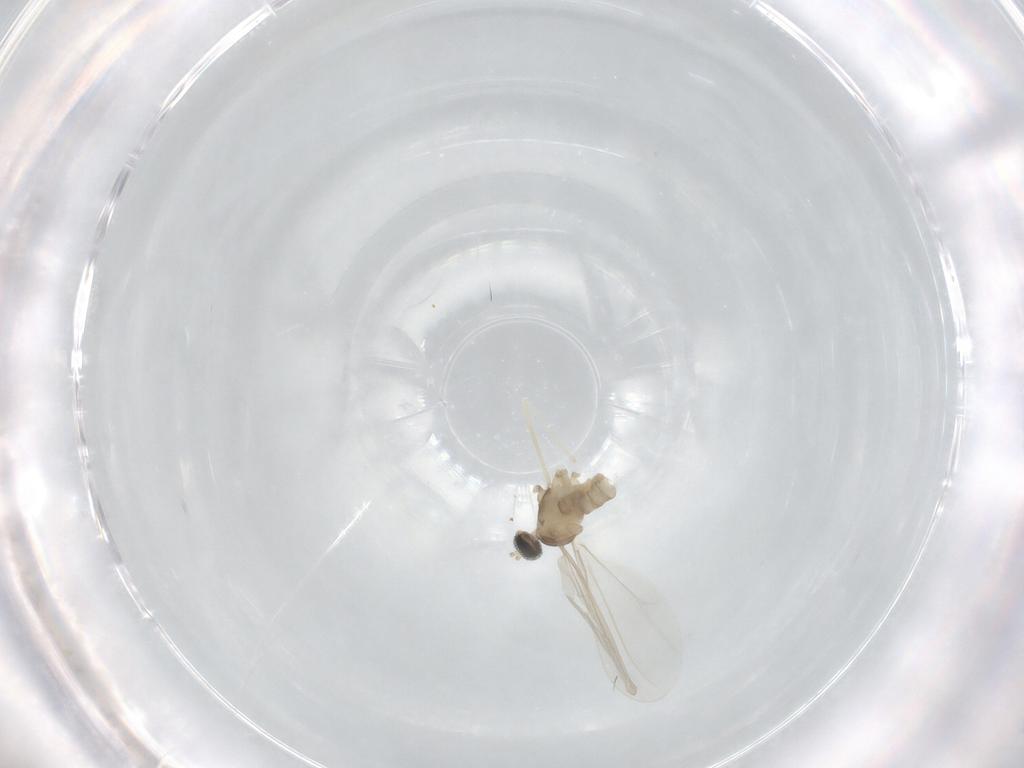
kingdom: Animalia
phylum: Arthropoda
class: Insecta
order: Diptera
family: Cecidomyiidae
